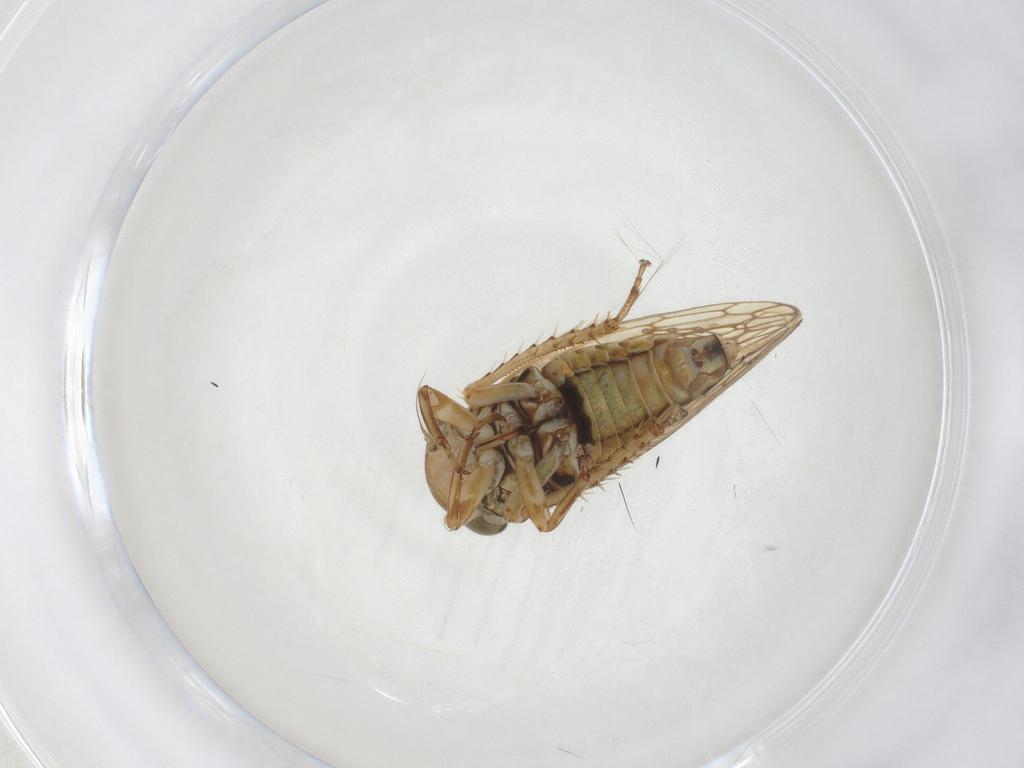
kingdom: Animalia
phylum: Arthropoda
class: Insecta
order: Hemiptera
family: Cicadellidae
